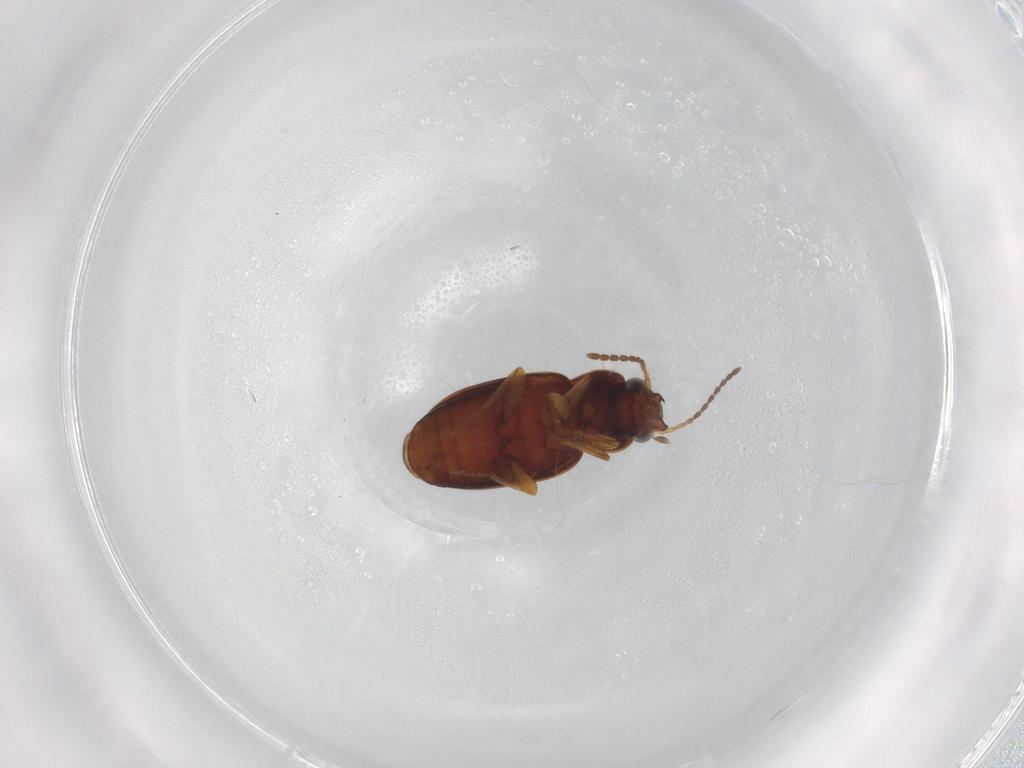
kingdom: Animalia
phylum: Arthropoda
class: Insecta
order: Coleoptera
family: Carabidae
